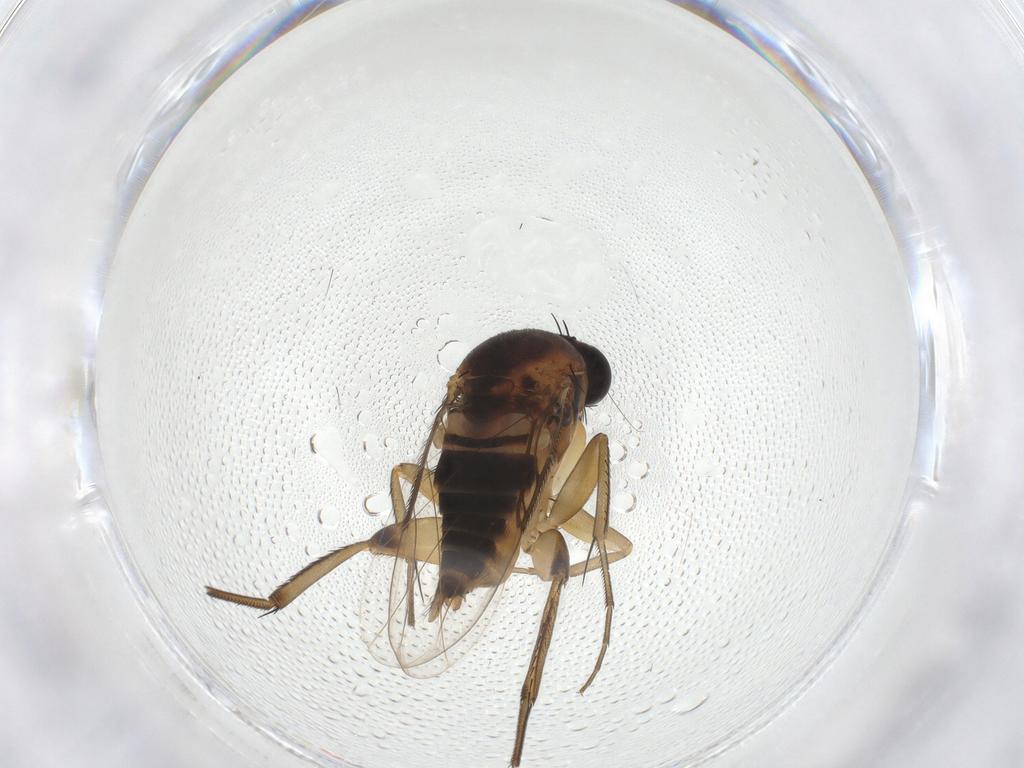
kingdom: Animalia
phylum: Arthropoda
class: Insecta
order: Diptera
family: Phoridae
